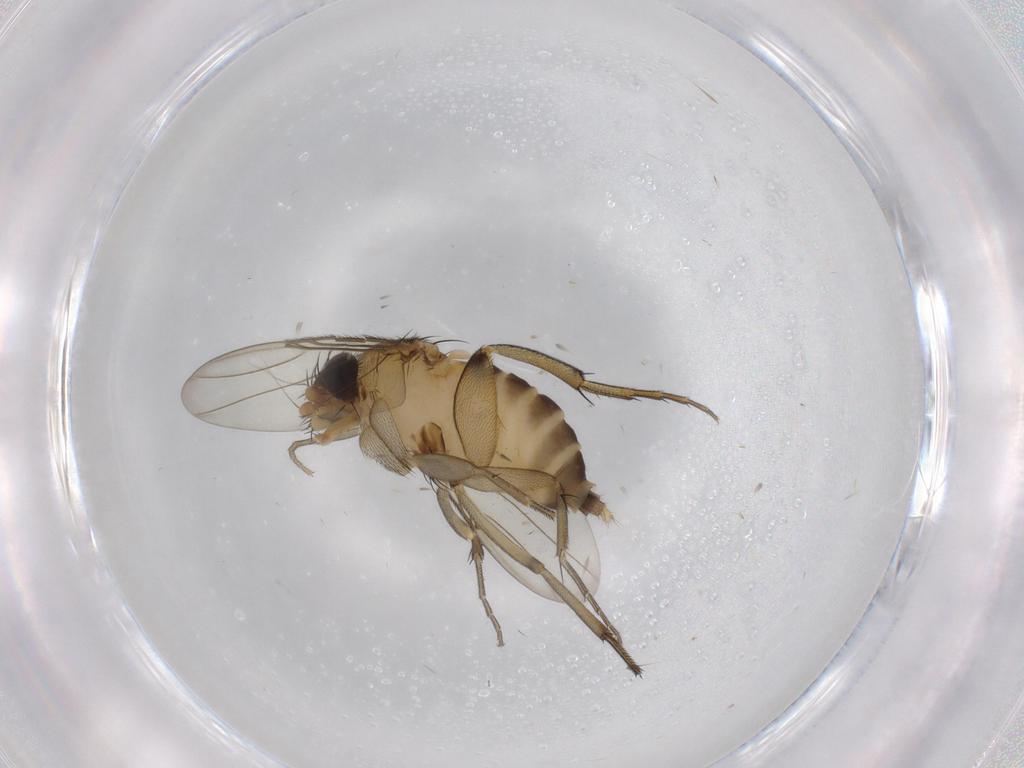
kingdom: Animalia
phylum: Arthropoda
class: Insecta
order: Diptera
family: Phoridae
